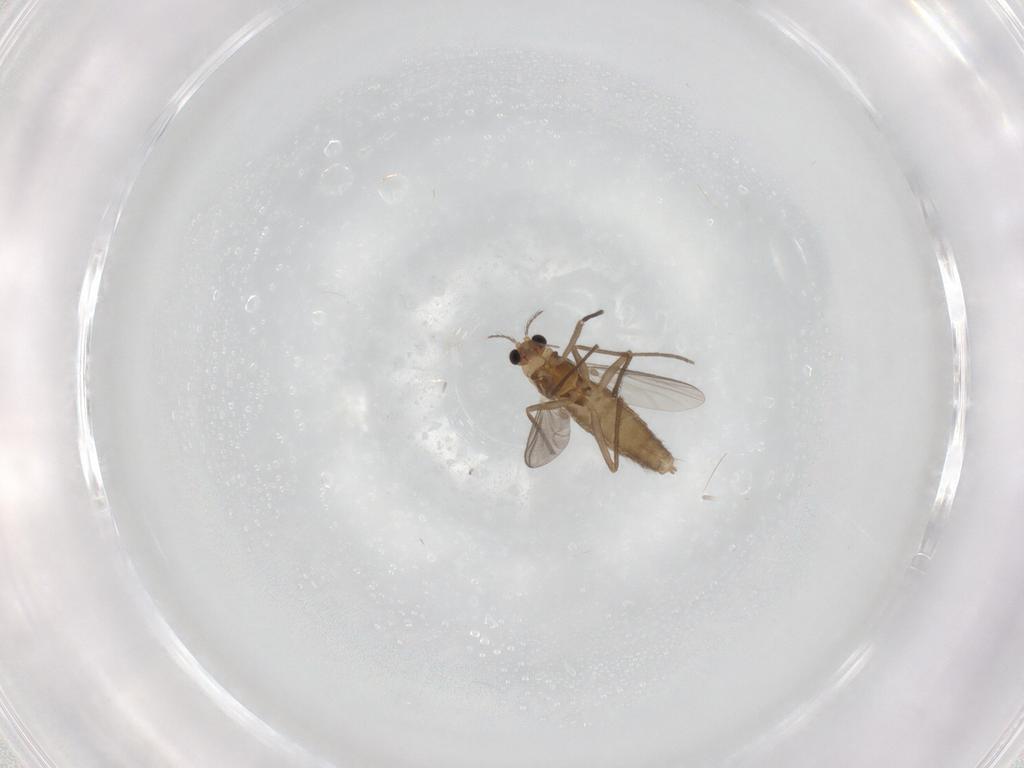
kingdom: Animalia
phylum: Arthropoda
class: Insecta
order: Diptera
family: Chironomidae
